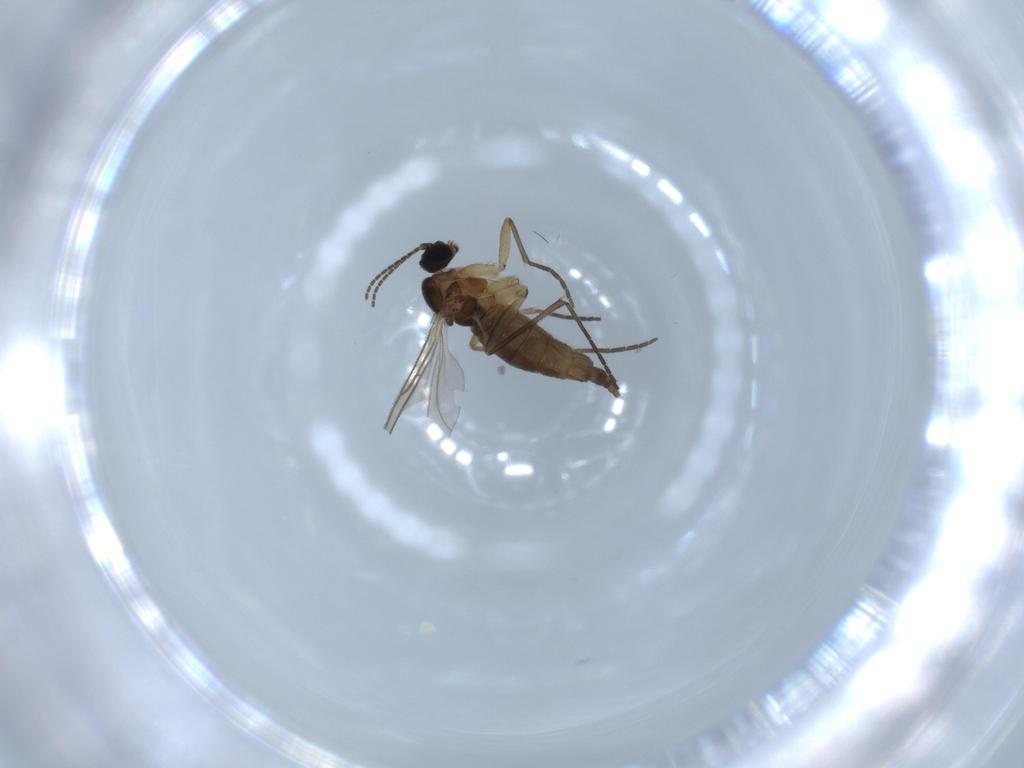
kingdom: Animalia
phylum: Arthropoda
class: Insecta
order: Diptera
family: Sciaridae
